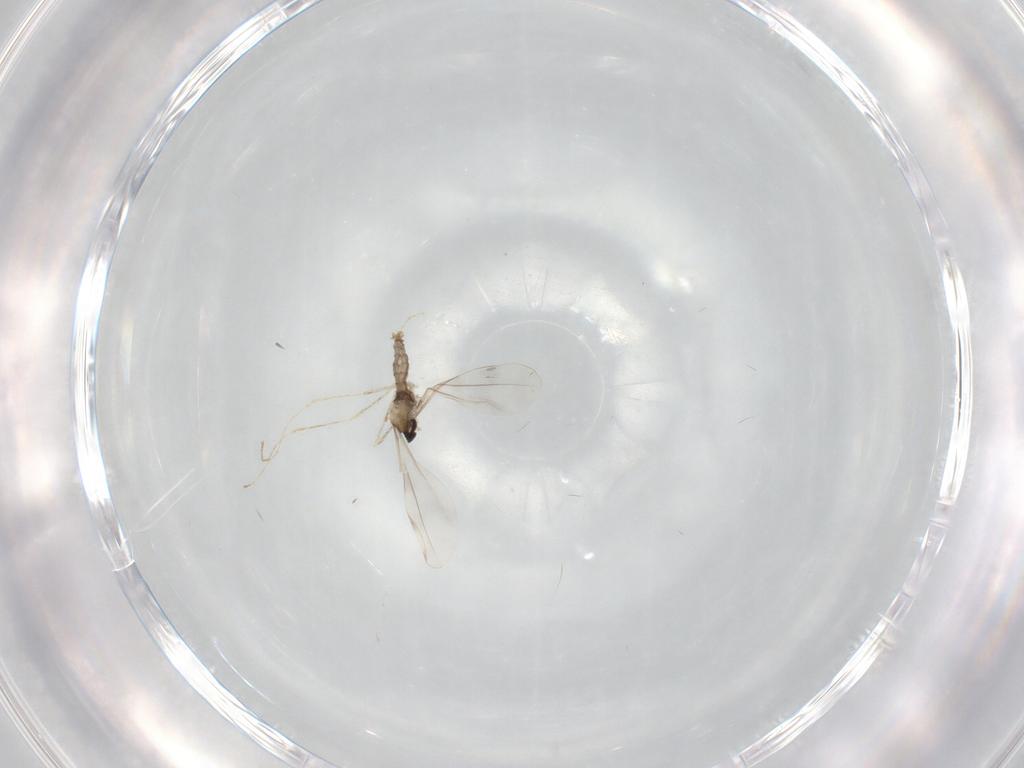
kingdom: Animalia
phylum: Arthropoda
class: Insecta
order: Diptera
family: Cecidomyiidae
